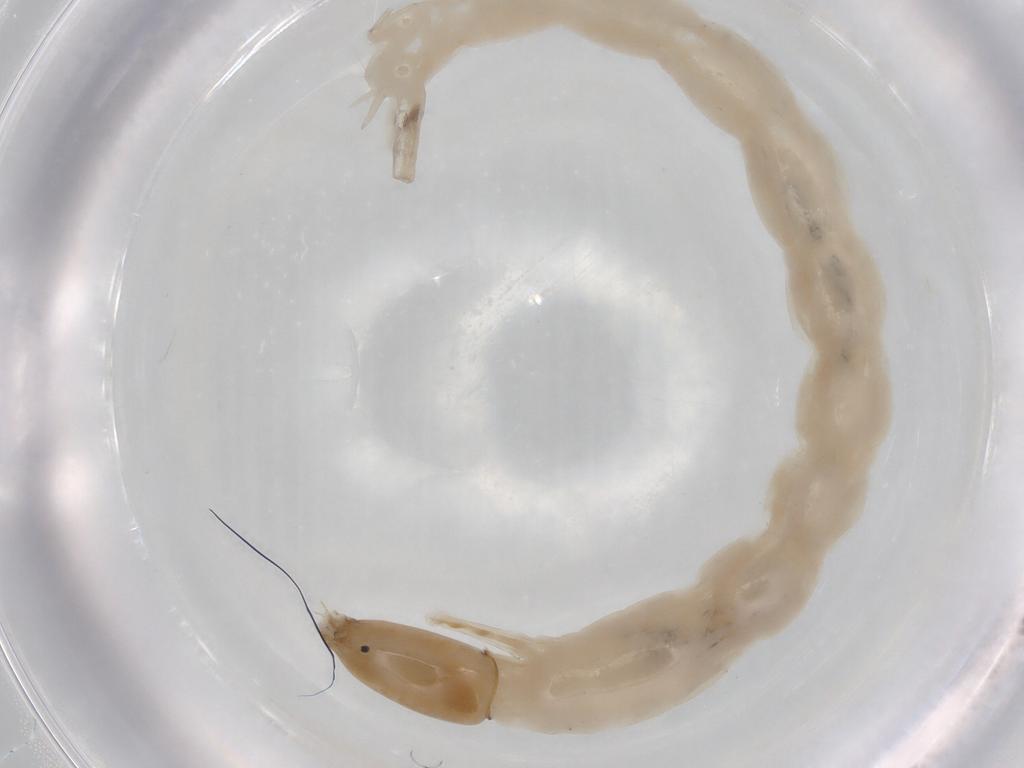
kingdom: Animalia
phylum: Arthropoda
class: Insecta
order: Diptera
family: Chironomidae
